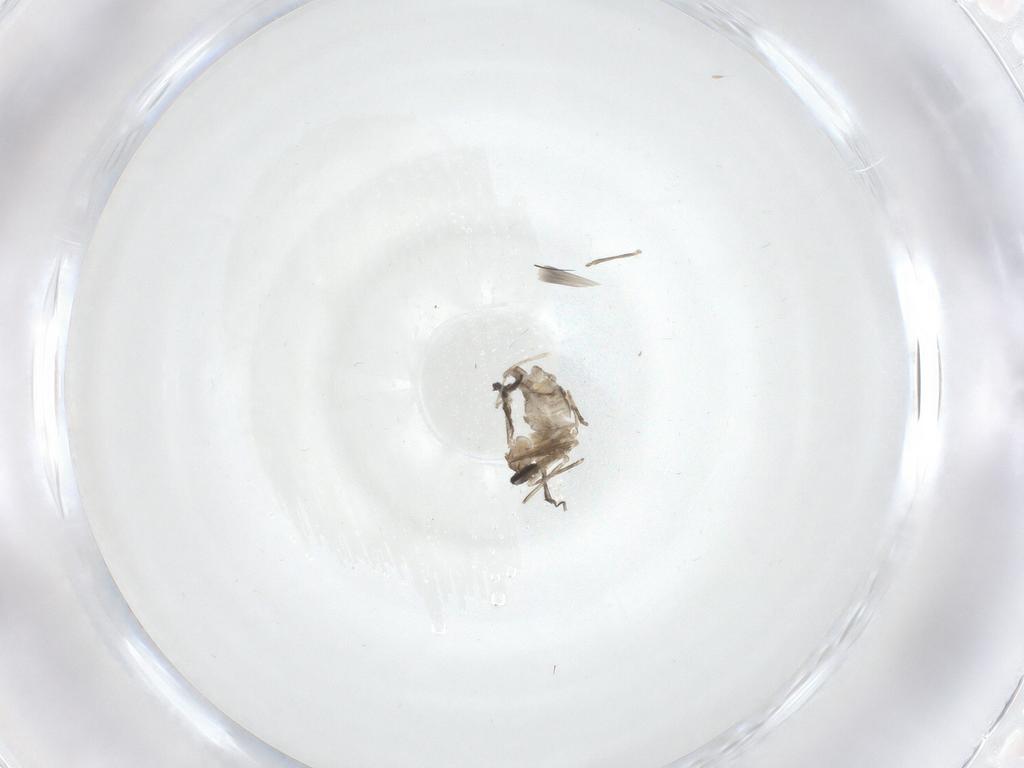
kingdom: Animalia
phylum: Arthropoda
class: Insecta
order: Diptera
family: Cecidomyiidae
